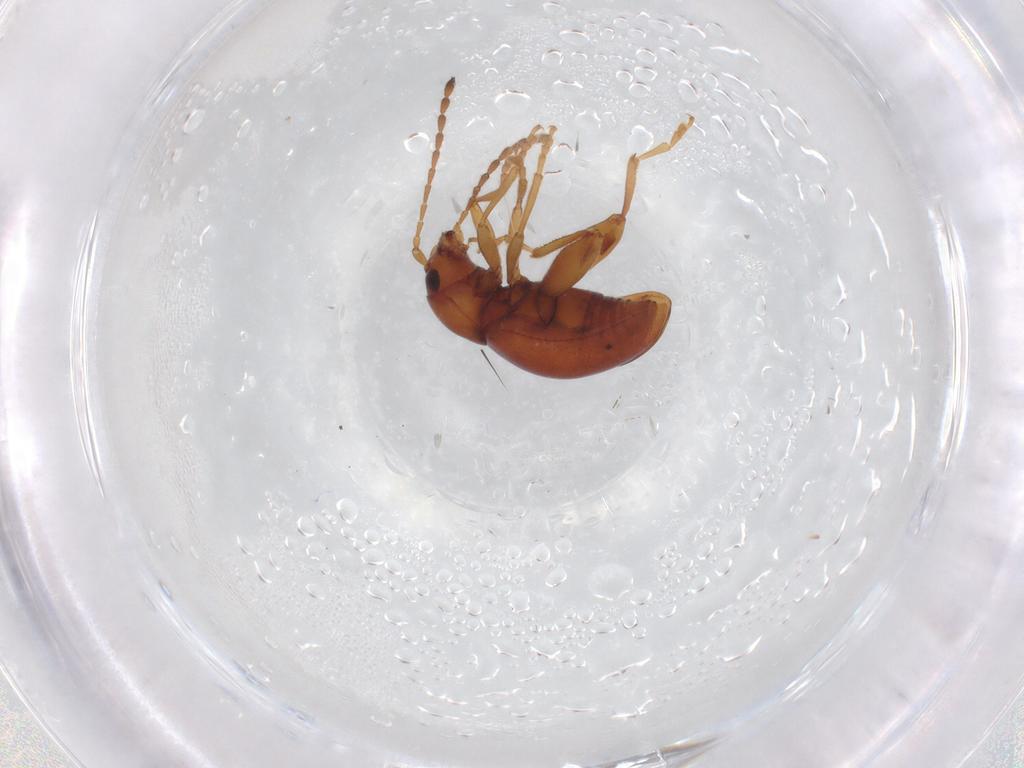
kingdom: Animalia
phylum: Arthropoda
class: Insecta
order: Coleoptera
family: Chrysomelidae
